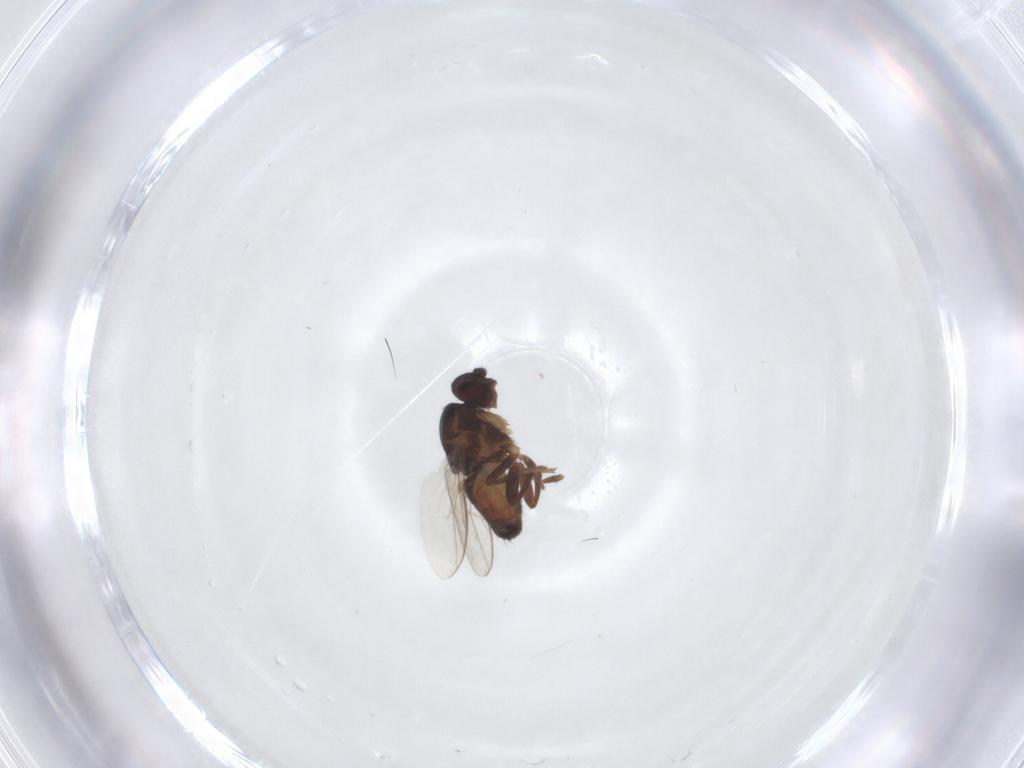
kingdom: Animalia
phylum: Arthropoda
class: Insecta
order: Diptera
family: Sphaeroceridae
